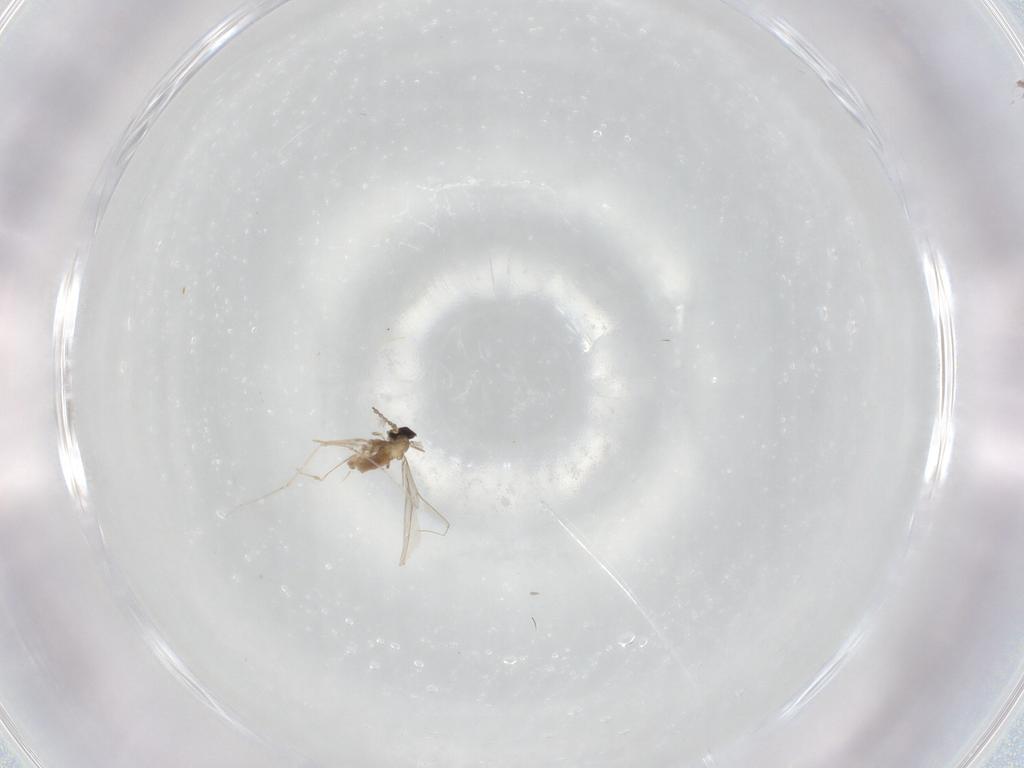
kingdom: Animalia
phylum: Arthropoda
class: Insecta
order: Diptera
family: Cecidomyiidae
